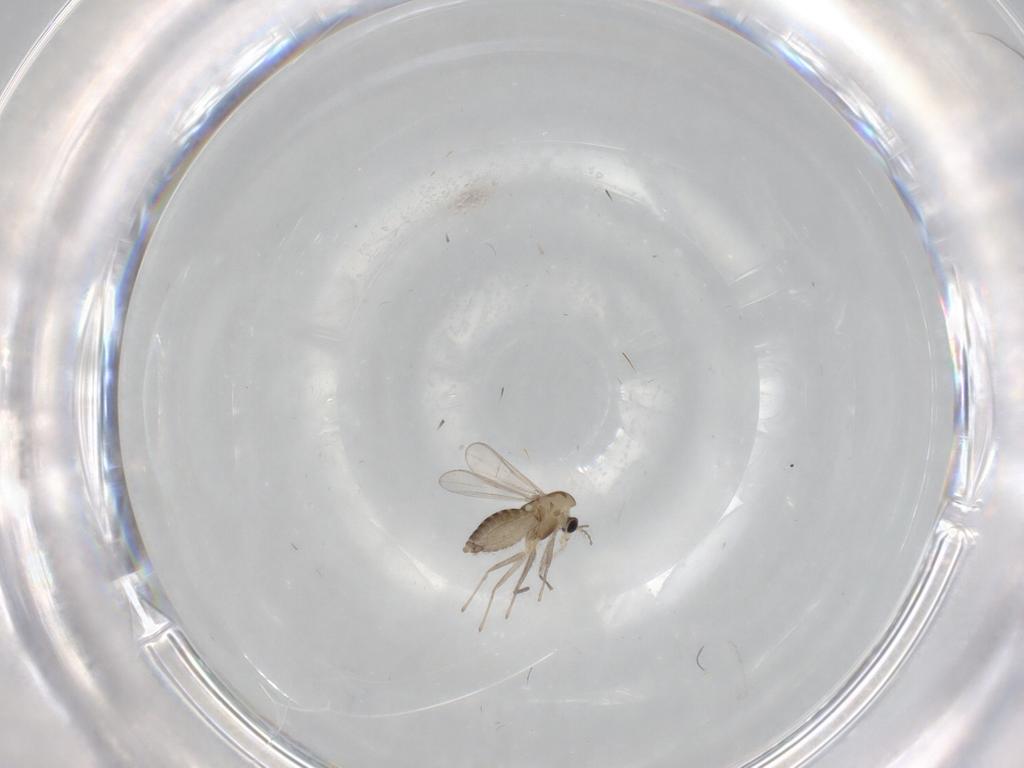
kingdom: Animalia
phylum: Arthropoda
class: Insecta
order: Diptera
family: Chironomidae
